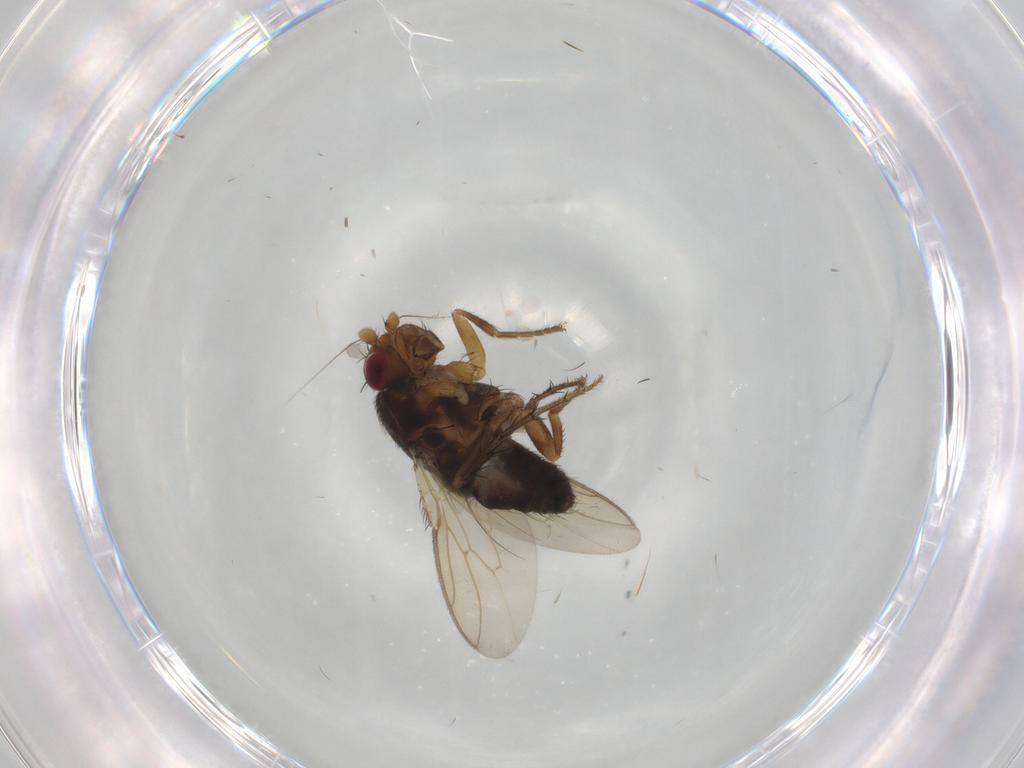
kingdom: Animalia
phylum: Arthropoda
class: Insecta
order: Diptera
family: Sphaeroceridae
